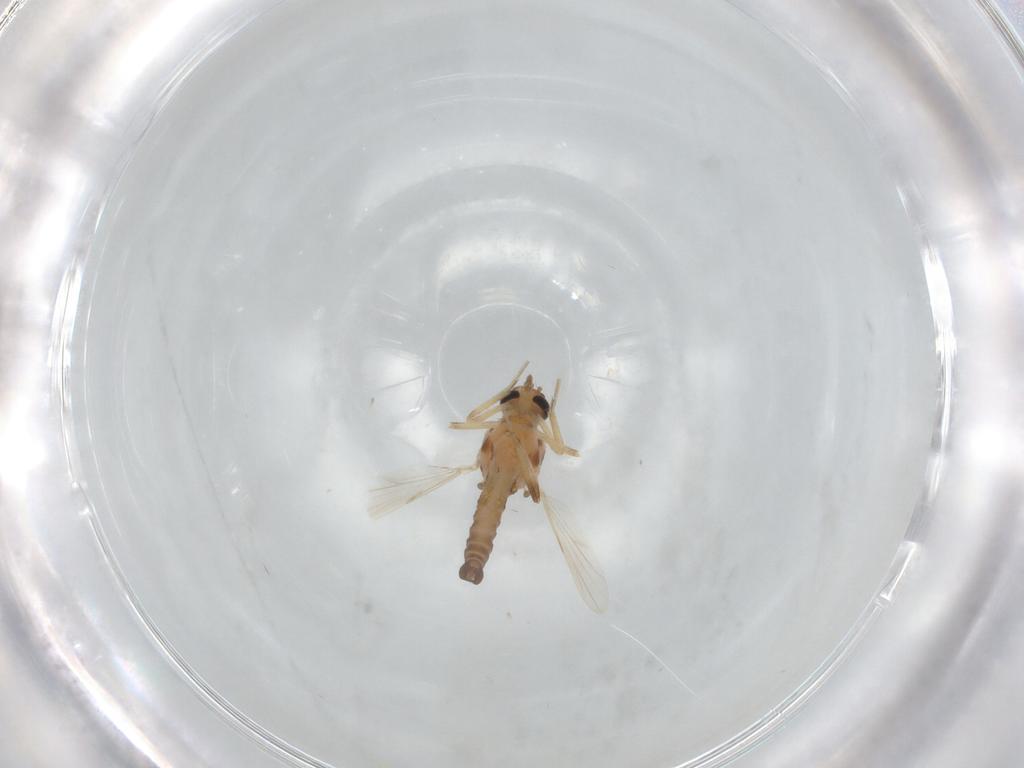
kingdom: Animalia
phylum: Arthropoda
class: Insecta
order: Diptera
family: Ceratopogonidae
